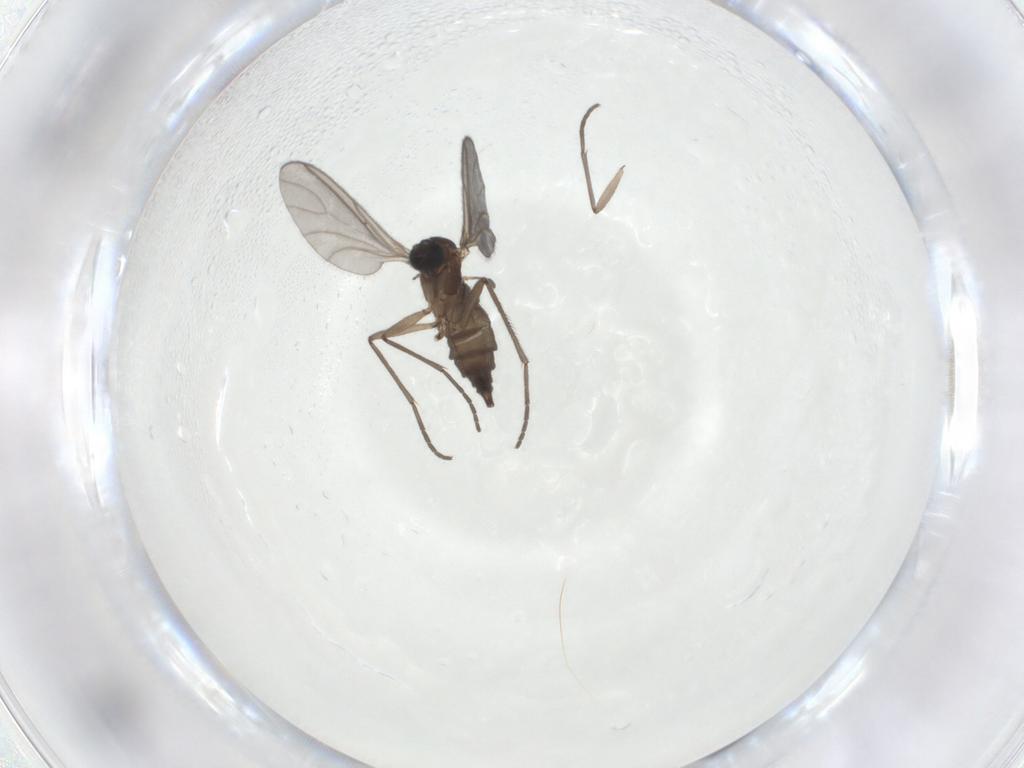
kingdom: Animalia
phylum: Arthropoda
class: Insecta
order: Diptera
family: Sciaridae
